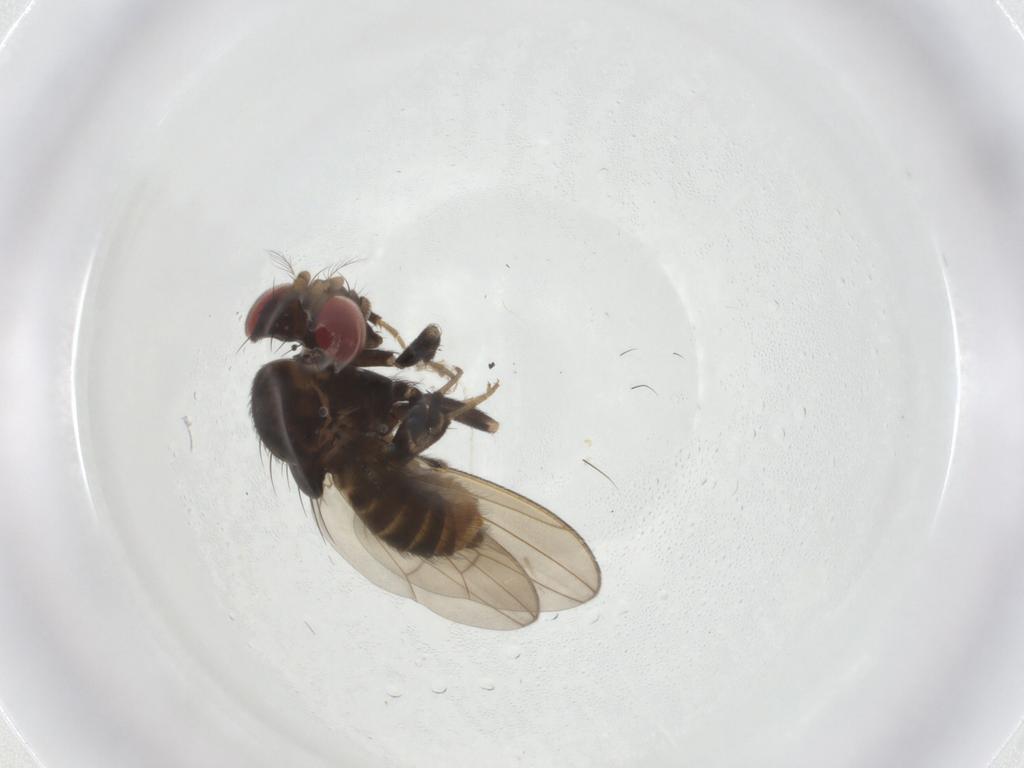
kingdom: Animalia
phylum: Arthropoda
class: Insecta
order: Diptera
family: Drosophilidae
